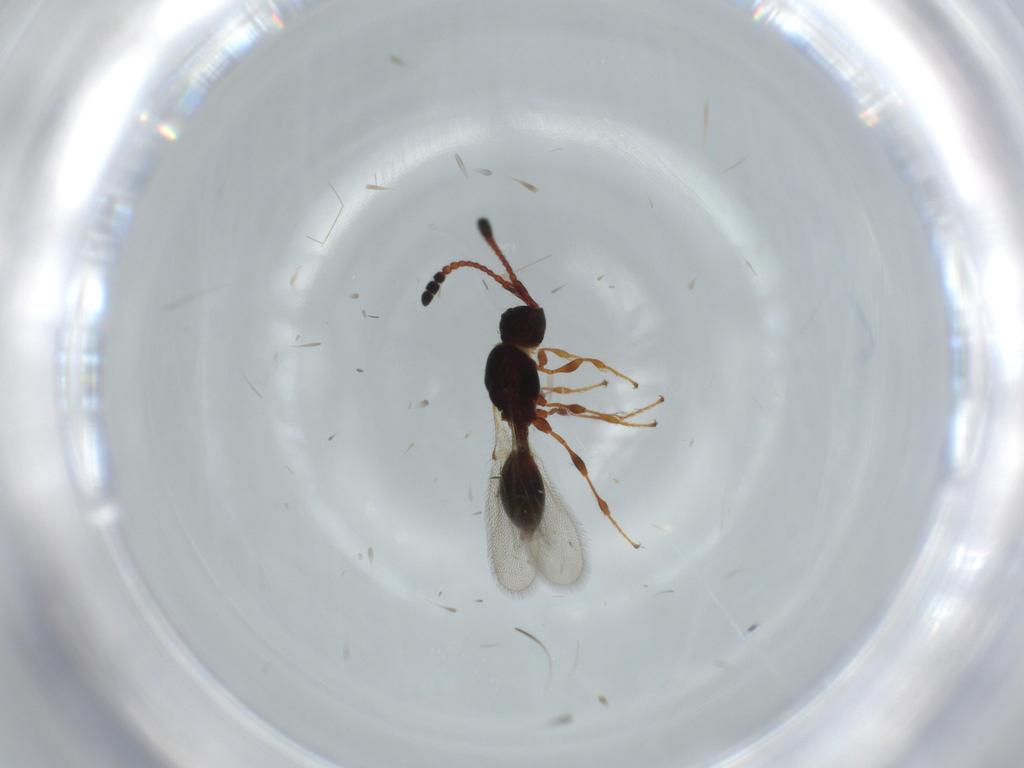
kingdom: Animalia
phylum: Arthropoda
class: Insecta
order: Hymenoptera
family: Diapriidae
